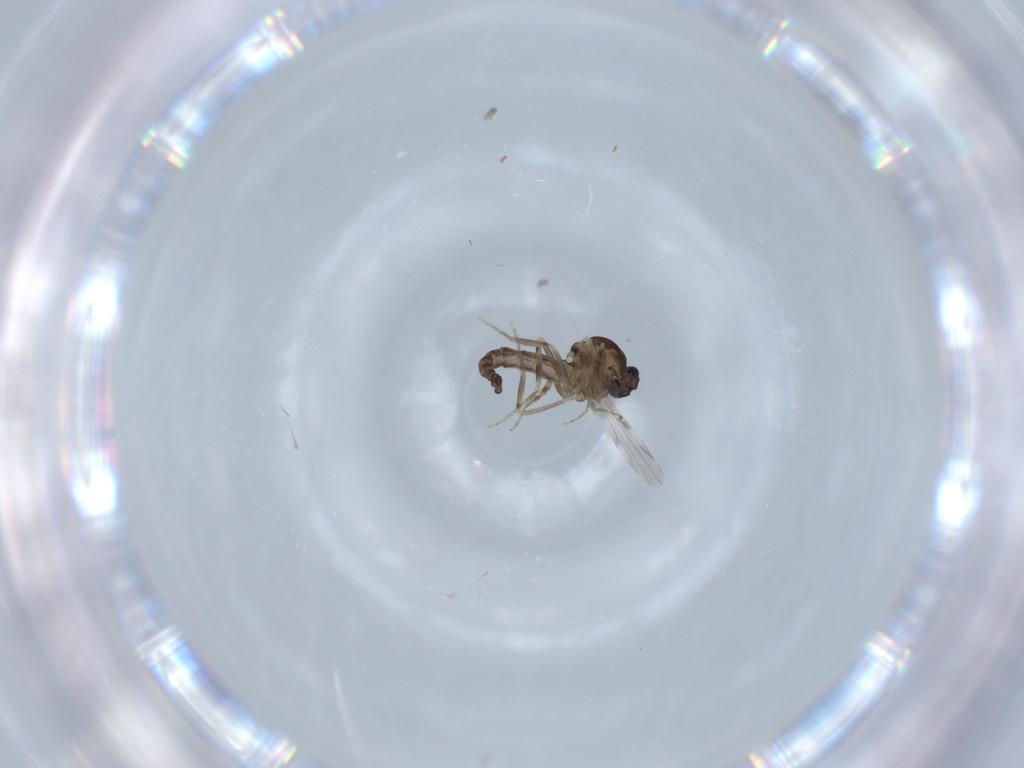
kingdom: Animalia
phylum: Arthropoda
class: Insecta
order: Diptera
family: Ceratopogonidae
